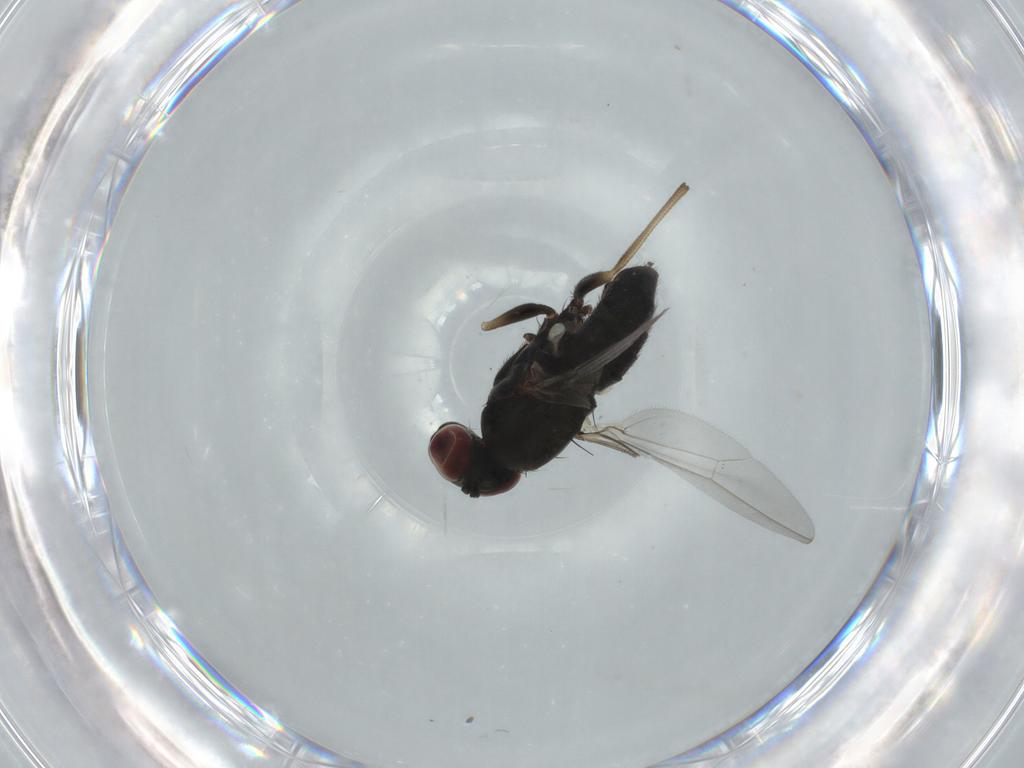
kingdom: Animalia
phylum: Arthropoda
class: Insecta
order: Diptera
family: Dolichopodidae
